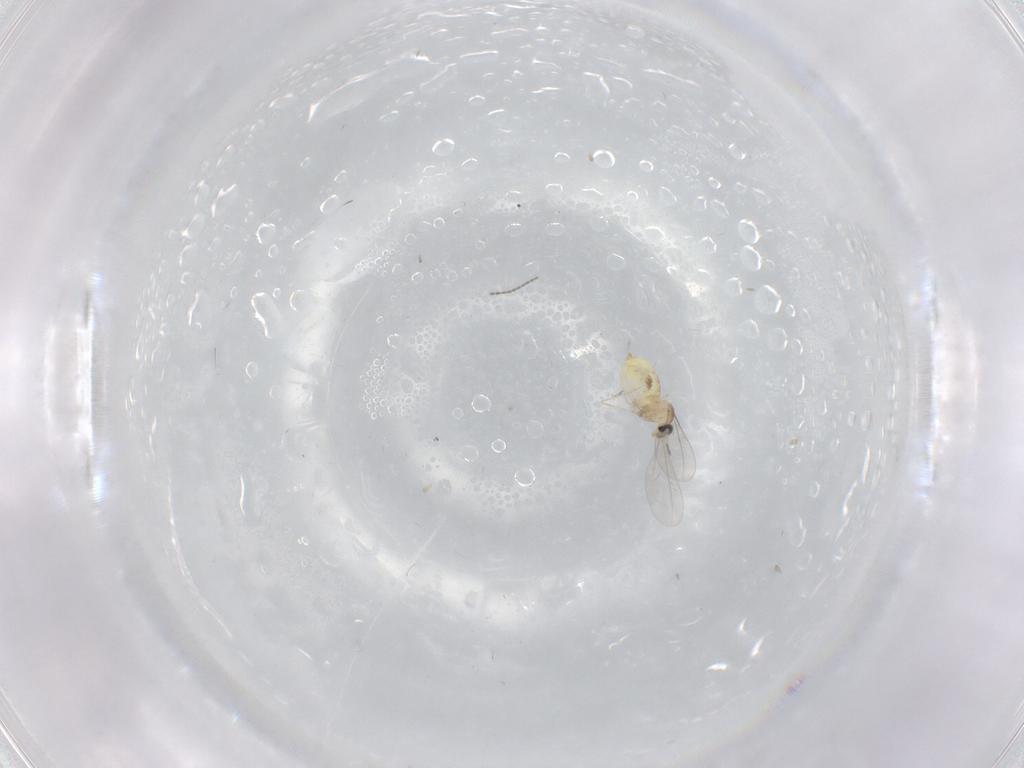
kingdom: Animalia
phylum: Arthropoda
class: Insecta
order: Diptera
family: Cecidomyiidae
